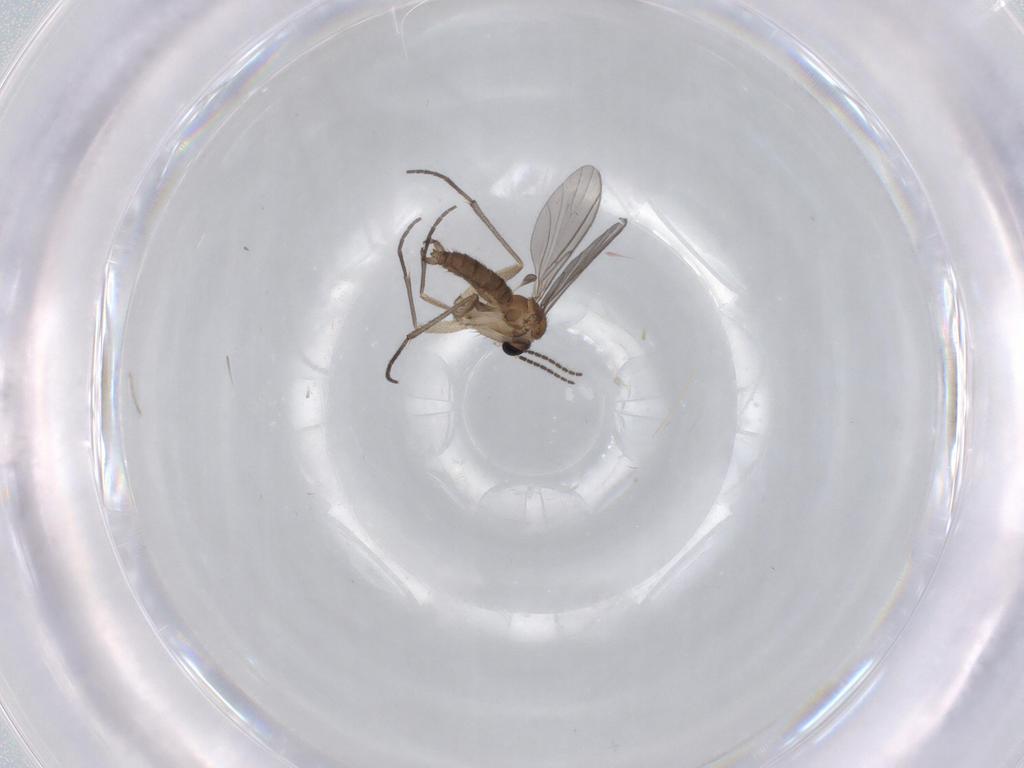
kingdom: Animalia
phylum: Arthropoda
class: Insecta
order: Diptera
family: Sciaridae
